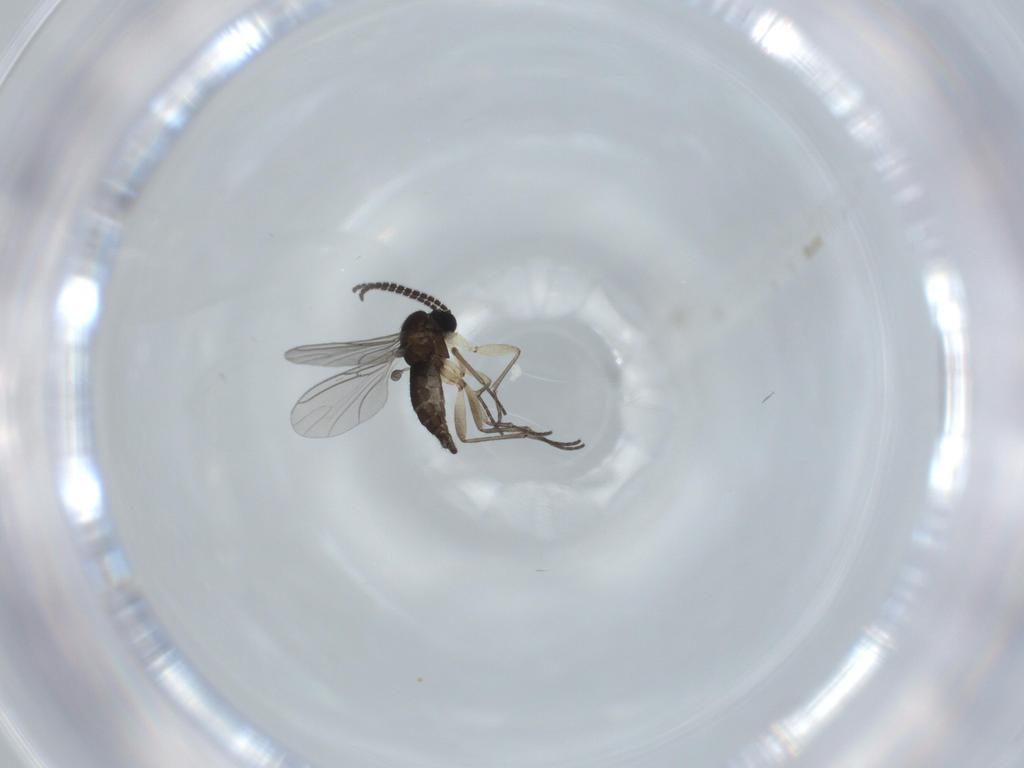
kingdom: Animalia
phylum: Arthropoda
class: Insecta
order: Diptera
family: Sciaridae
